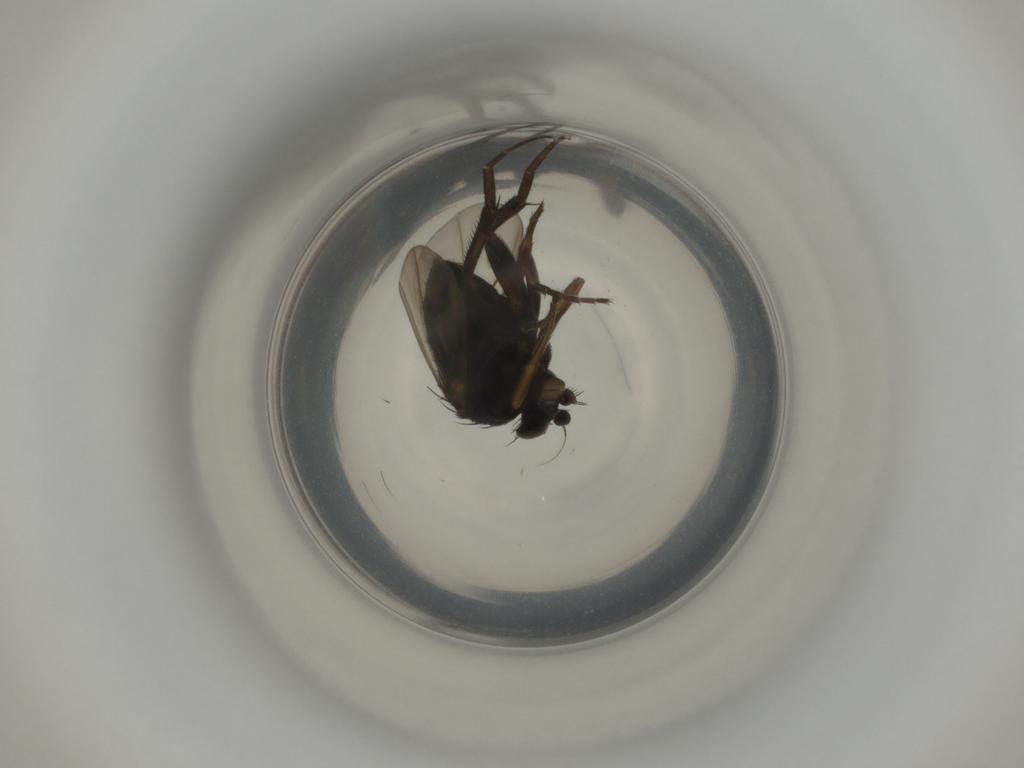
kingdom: Animalia
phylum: Arthropoda
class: Insecta
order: Diptera
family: Phoridae
